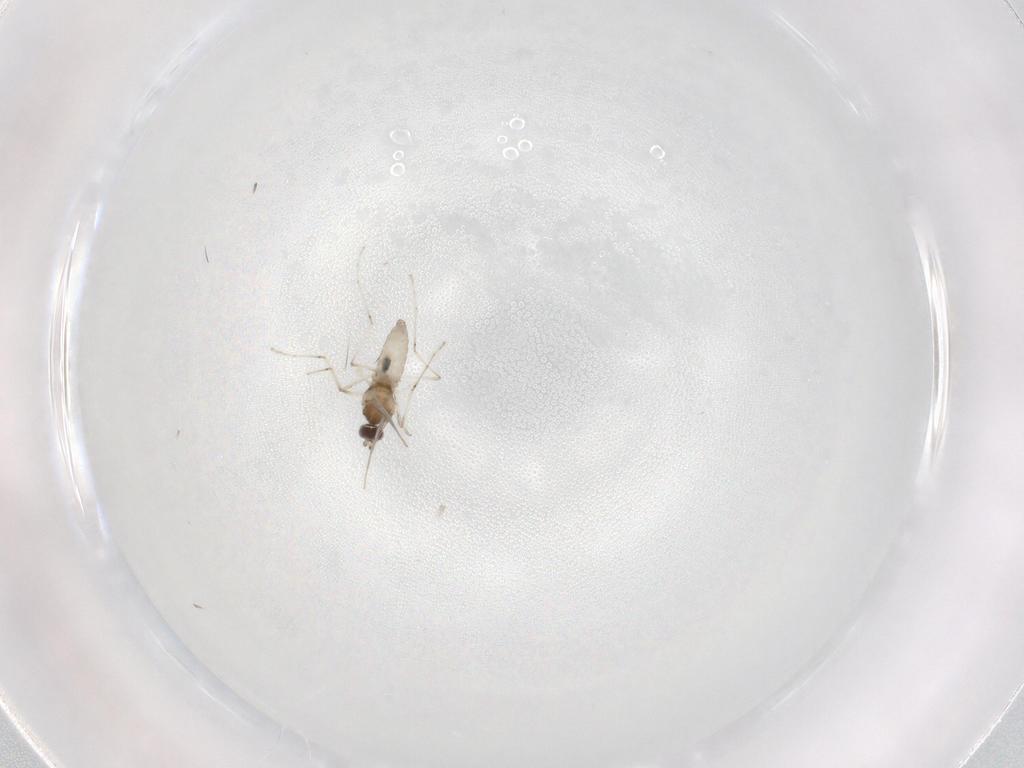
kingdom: Animalia
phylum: Arthropoda
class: Insecta
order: Diptera
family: Cecidomyiidae
